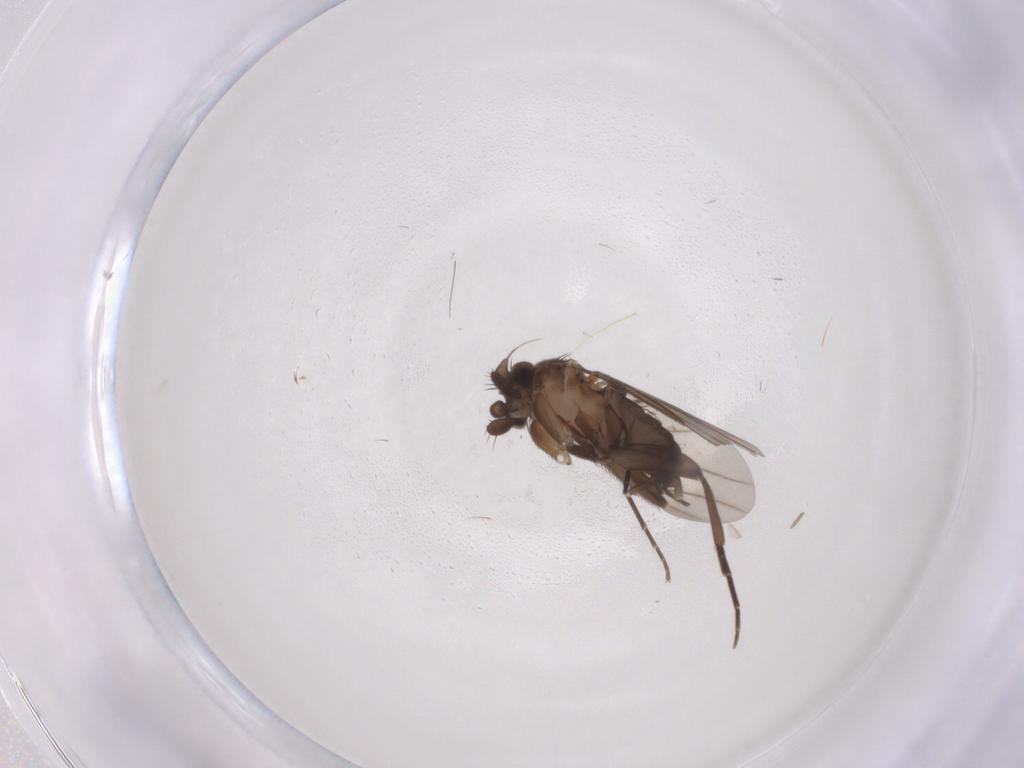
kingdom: Animalia
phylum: Arthropoda
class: Insecta
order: Diptera
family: Phoridae
